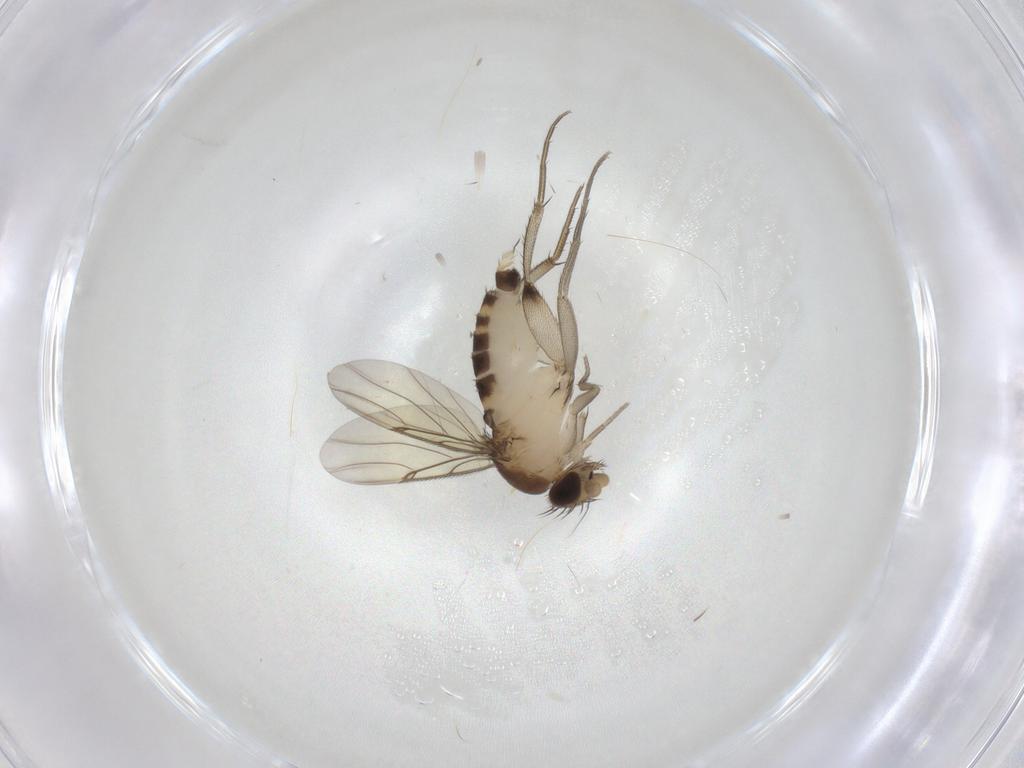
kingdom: Animalia
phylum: Arthropoda
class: Insecta
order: Diptera
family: Phoridae
